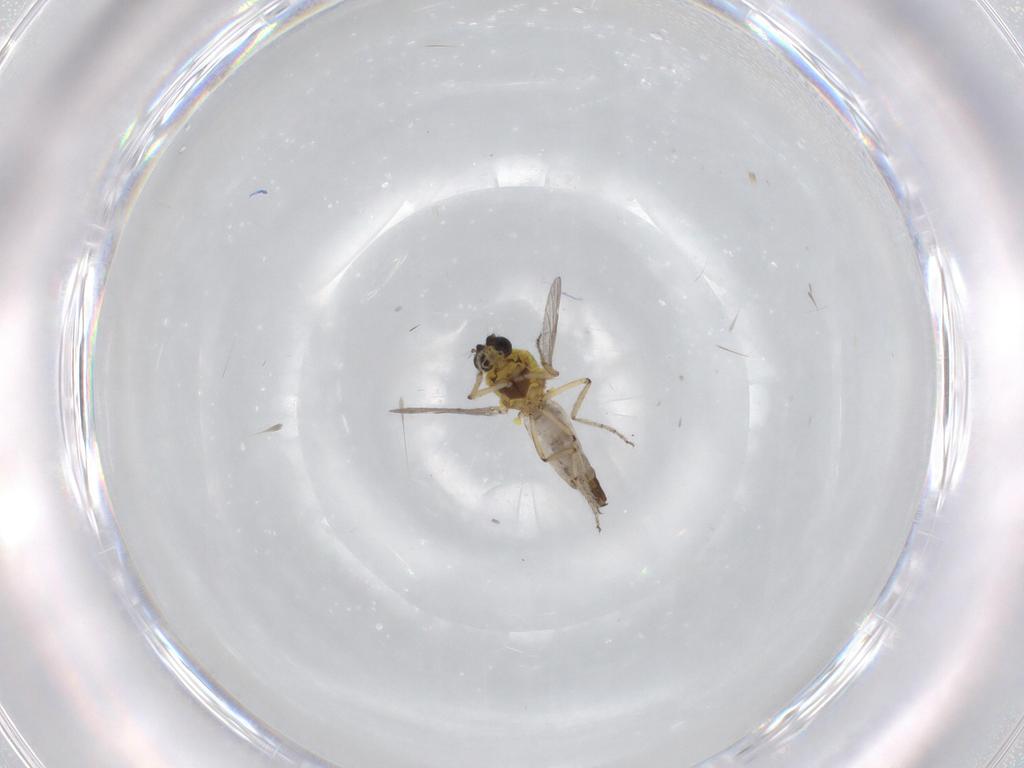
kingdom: Animalia
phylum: Arthropoda
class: Insecta
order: Diptera
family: Ceratopogonidae
